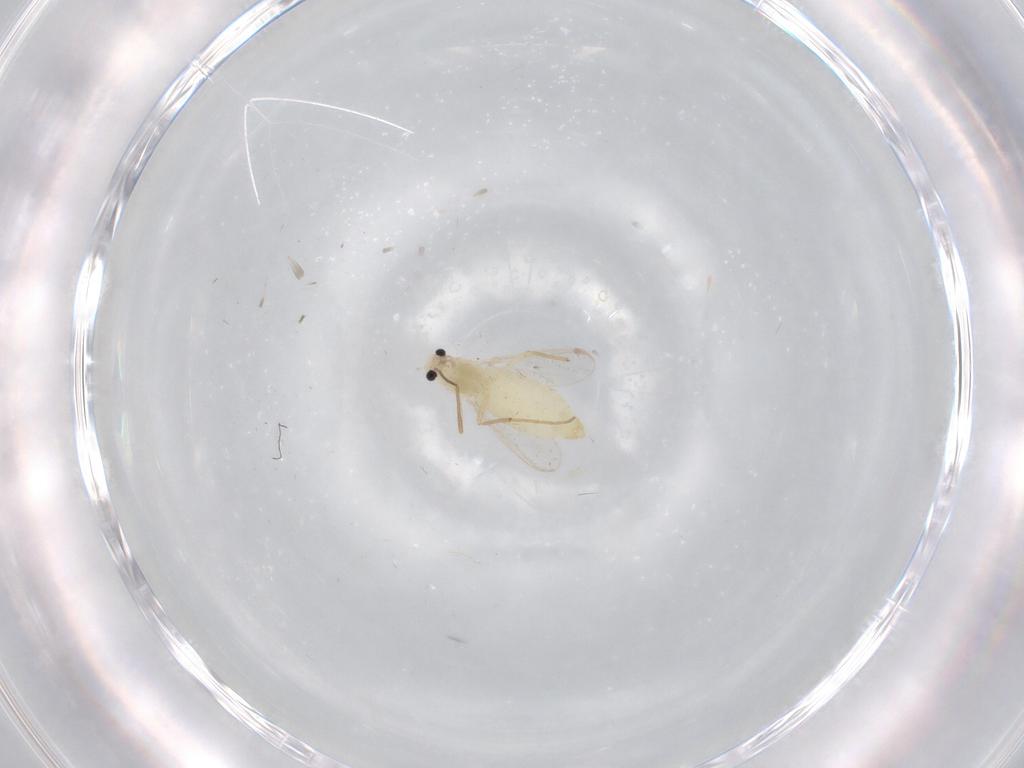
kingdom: Animalia
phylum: Arthropoda
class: Insecta
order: Diptera
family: Chironomidae
